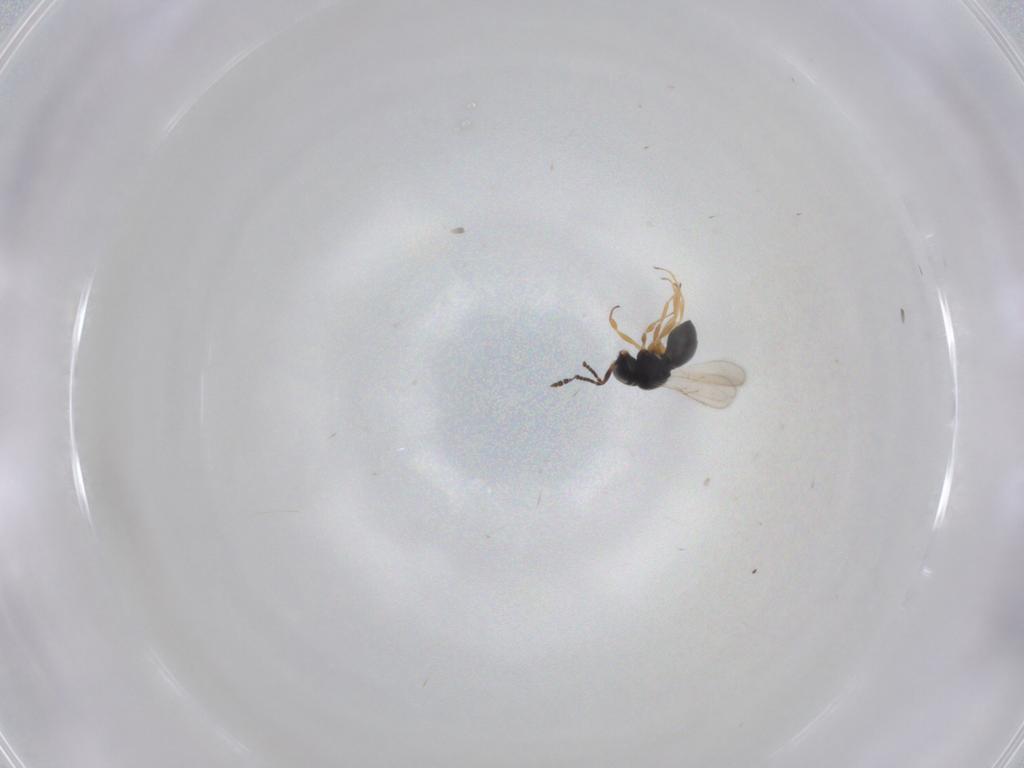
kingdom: Animalia
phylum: Arthropoda
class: Insecta
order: Hymenoptera
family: Scelionidae
